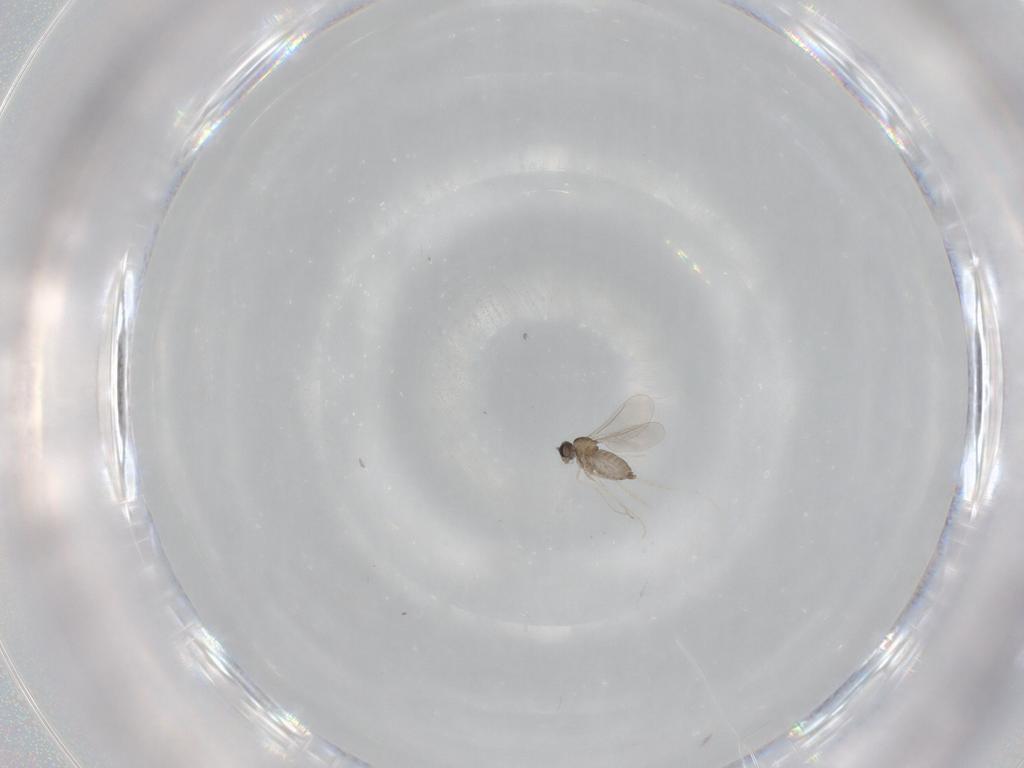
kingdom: Animalia
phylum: Arthropoda
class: Insecta
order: Diptera
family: Cecidomyiidae
